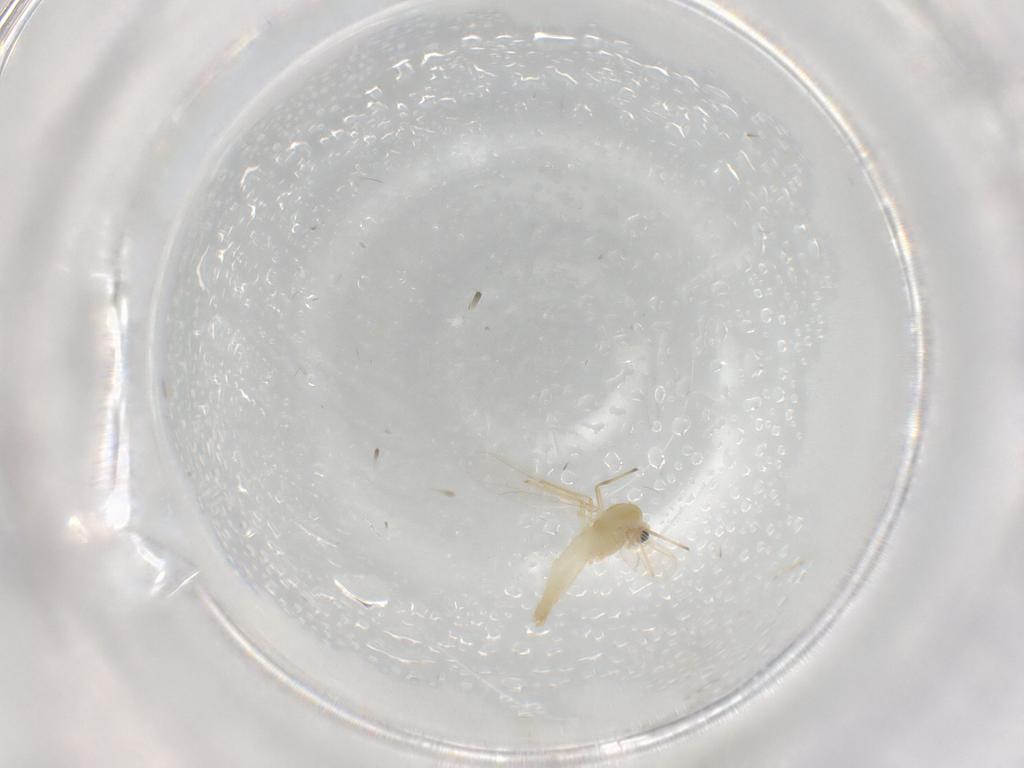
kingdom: Animalia
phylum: Arthropoda
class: Insecta
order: Diptera
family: Chironomidae
